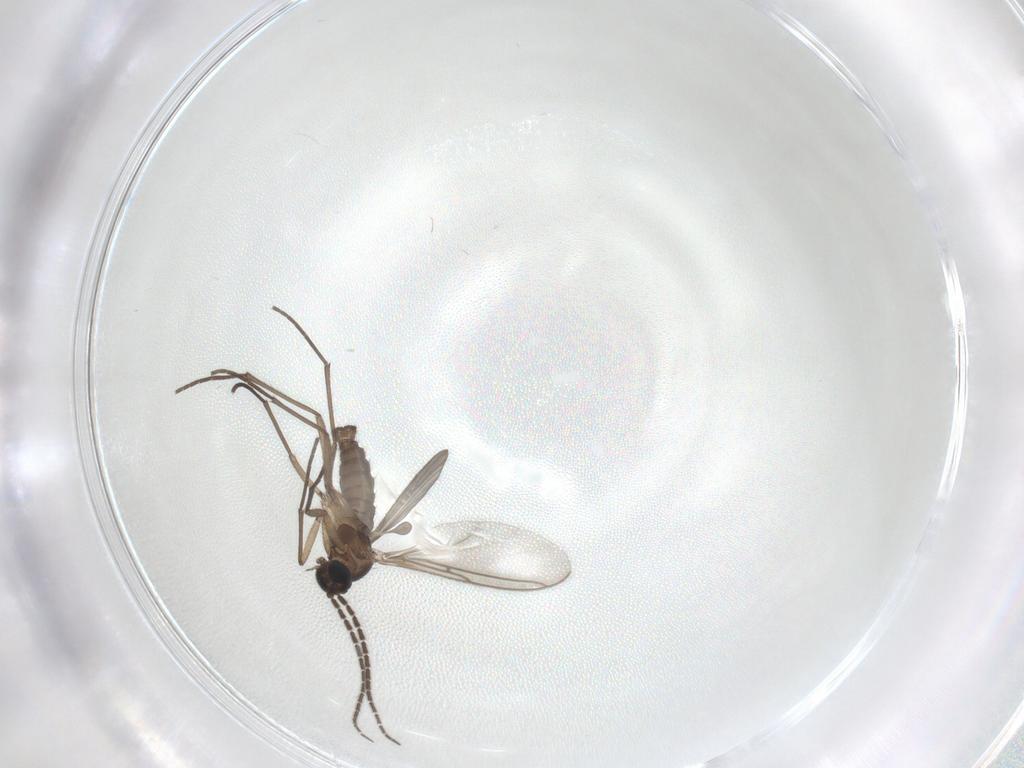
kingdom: Animalia
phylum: Arthropoda
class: Insecta
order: Diptera
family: Sciaridae
